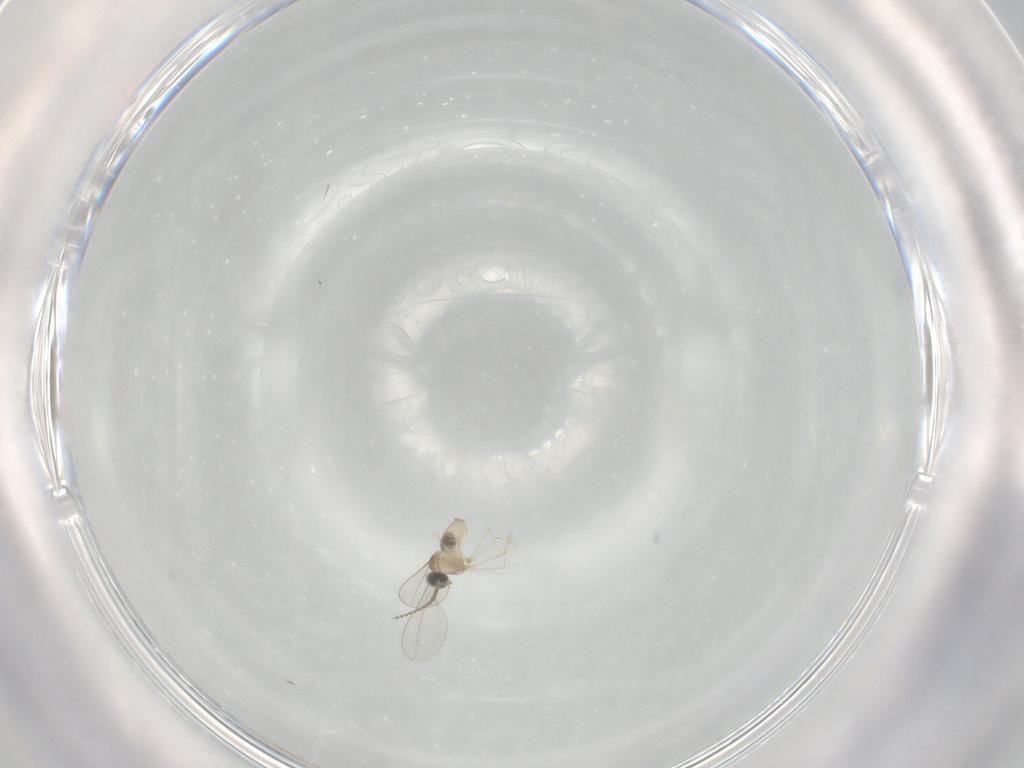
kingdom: Animalia
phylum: Arthropoda
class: Insecta
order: Diptera
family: Cecidomyiidae
